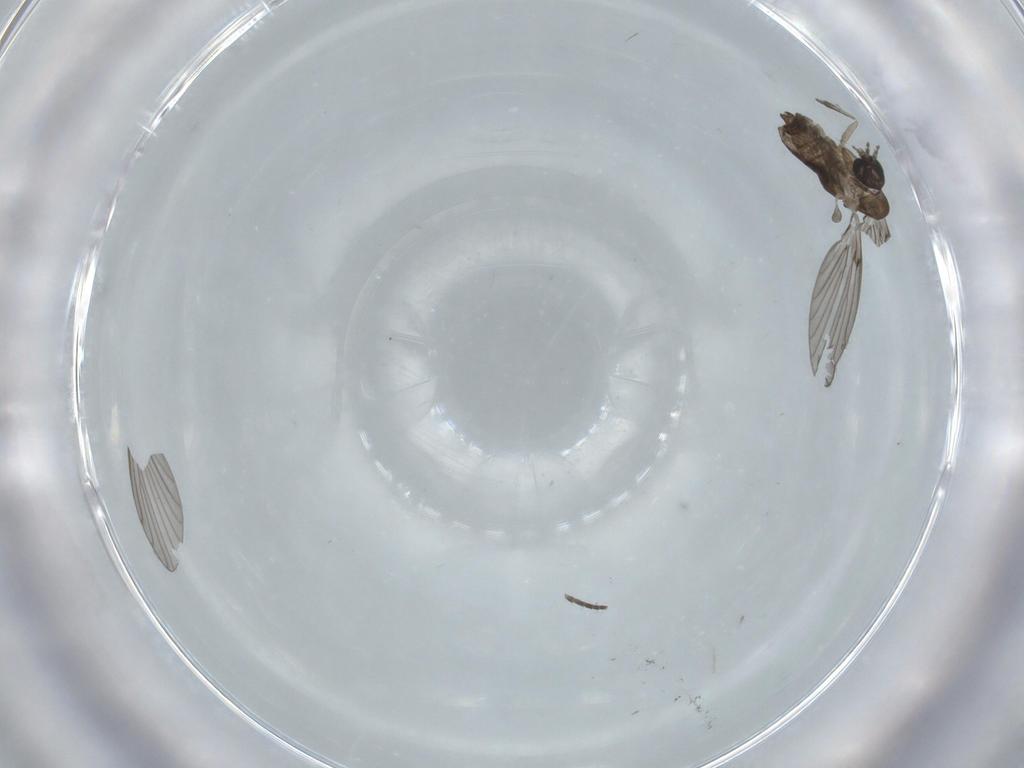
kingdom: Animalia
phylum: Arthropoda
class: Insecta
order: Diptera
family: Psychodidae
